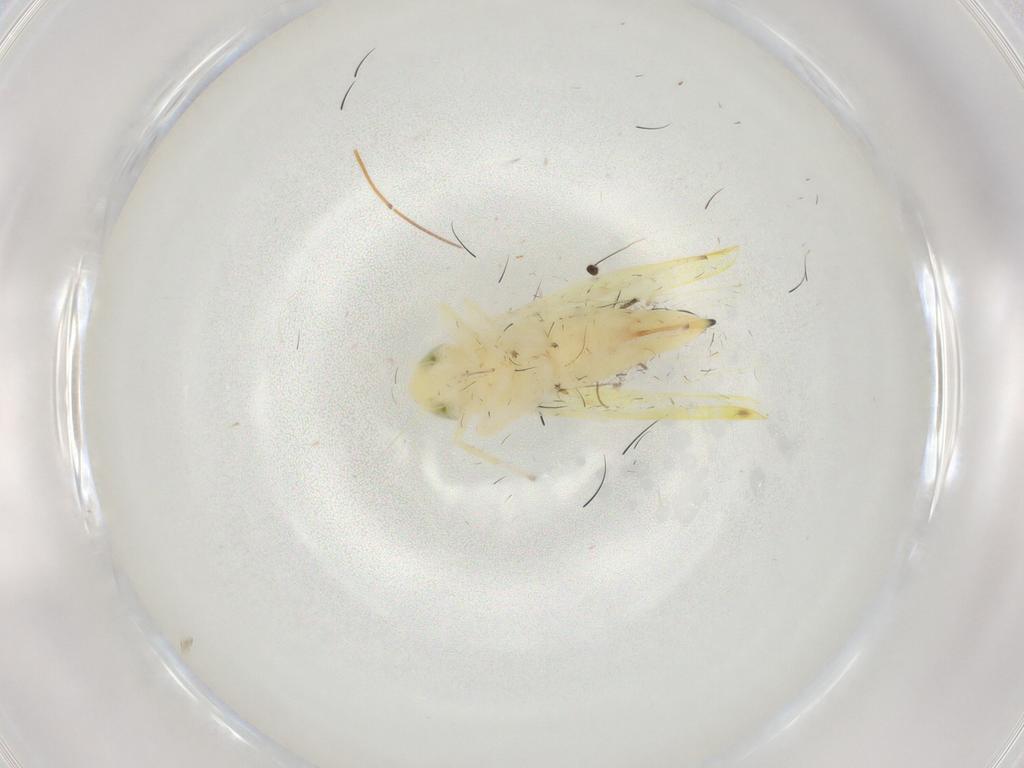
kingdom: Animalia
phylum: Arthropoda
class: Insecta
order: Hemiptera
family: Cicadellidae
